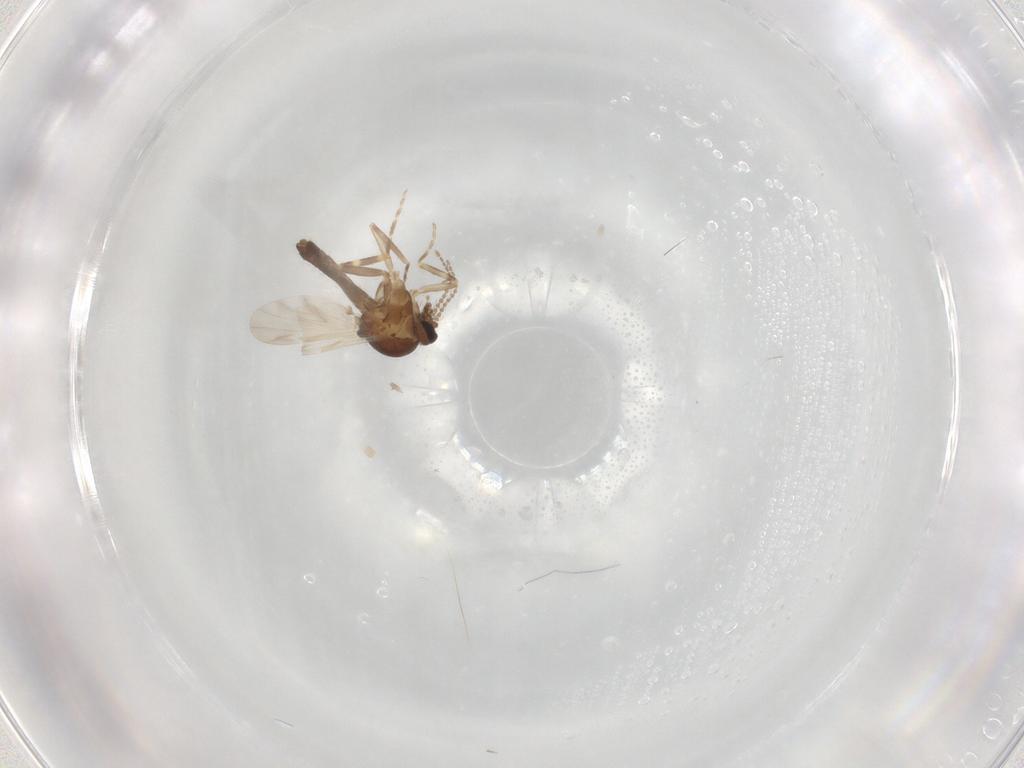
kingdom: Animalia
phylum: Arthropoda
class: Insecta
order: Diptera
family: Ceratopogonidae
